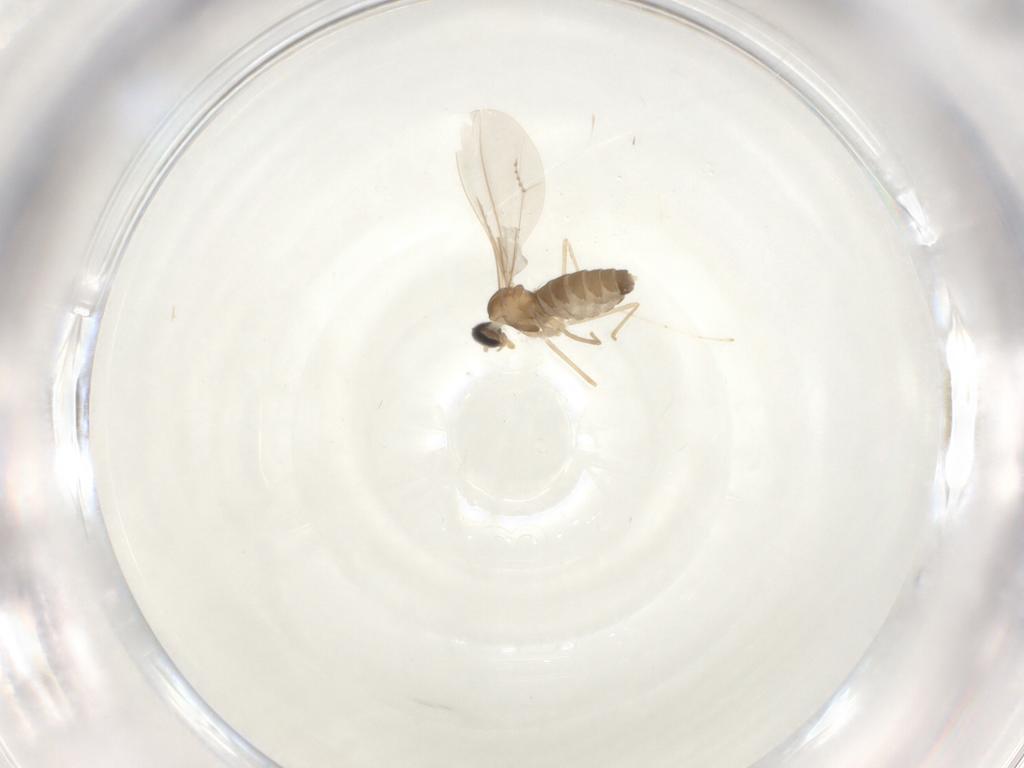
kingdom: Animalia
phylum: Arthropoda
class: Insecta
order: Diptera
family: Cecidomyiidae
